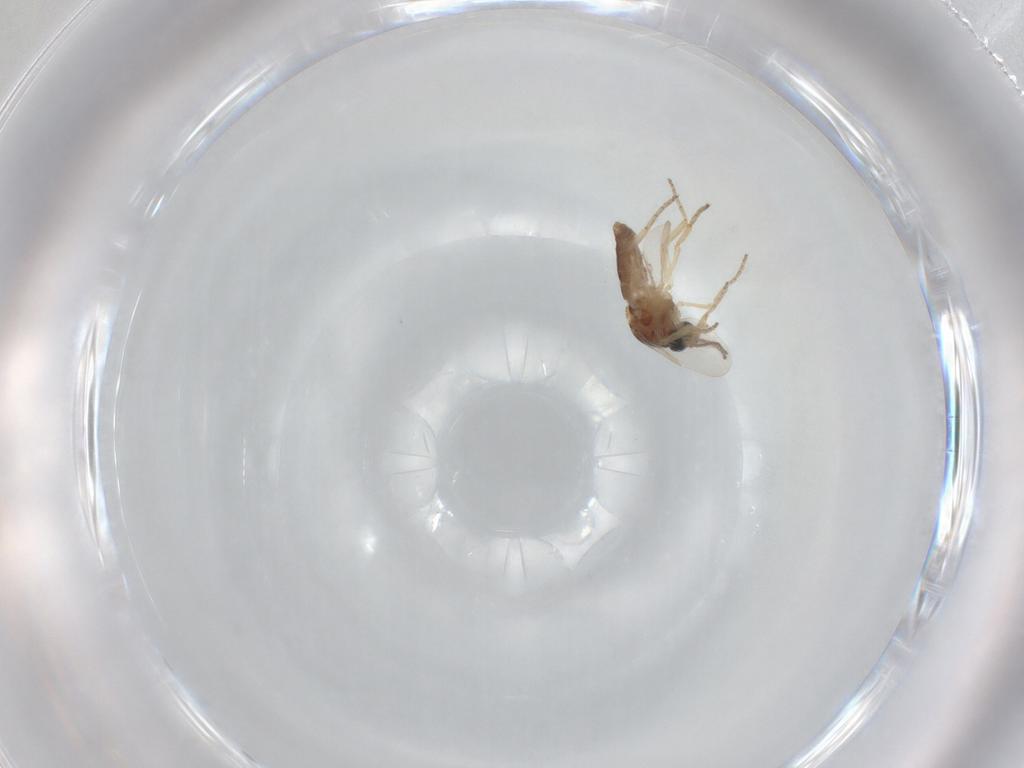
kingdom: Animalia
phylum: Arthropoda
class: Insecta
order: Diptera
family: Ceratopogonidae
